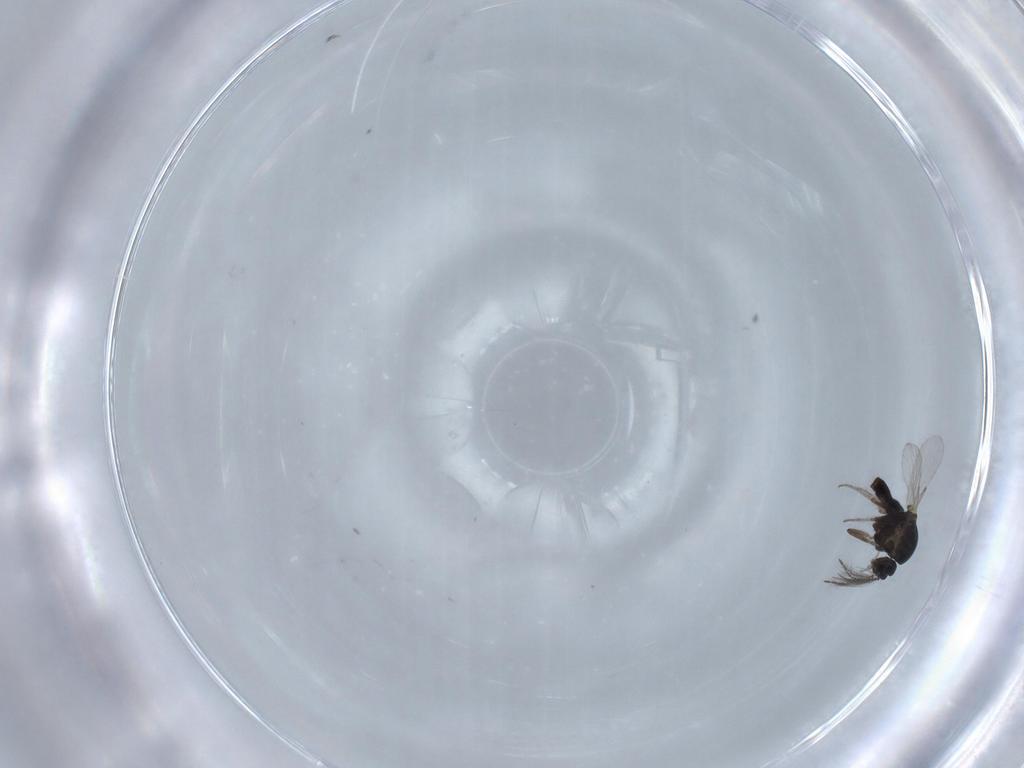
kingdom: Animalia
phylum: Arthropoda
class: Insecta
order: Diptera
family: Ceratopogonidae
